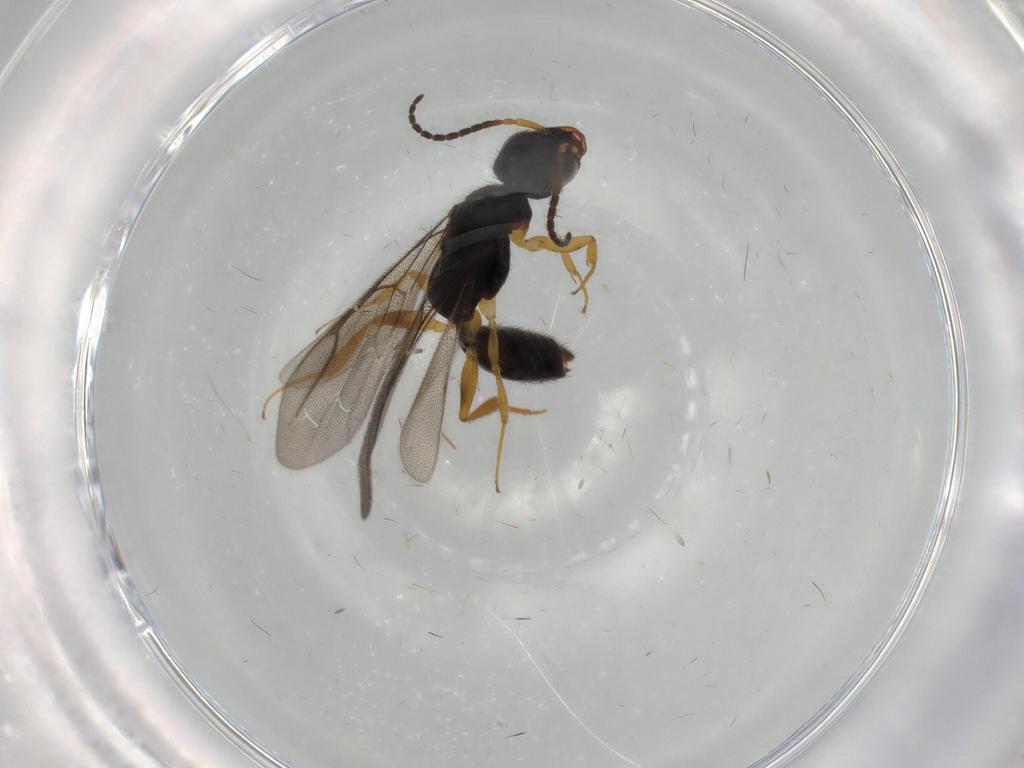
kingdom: Animalia
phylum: Arthropoda
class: Insecta
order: Hymenoptera
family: Bethylidae
